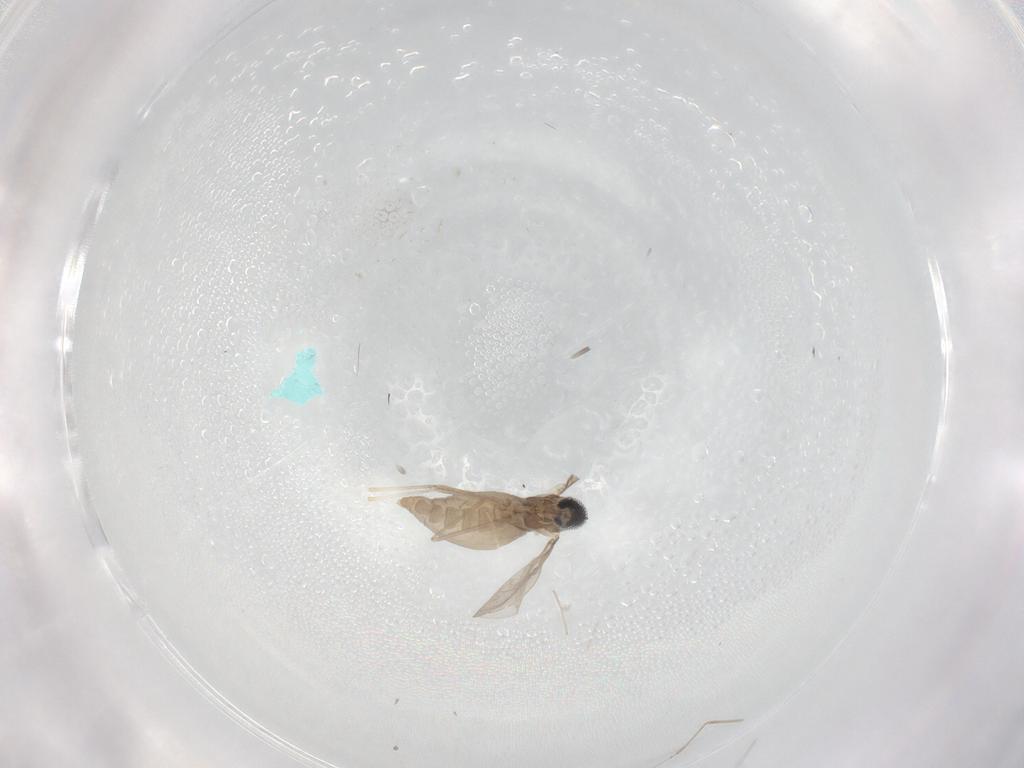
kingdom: Animalia
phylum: Arthropoda
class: Insecta
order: Diptera
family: Cecidomyiidae
